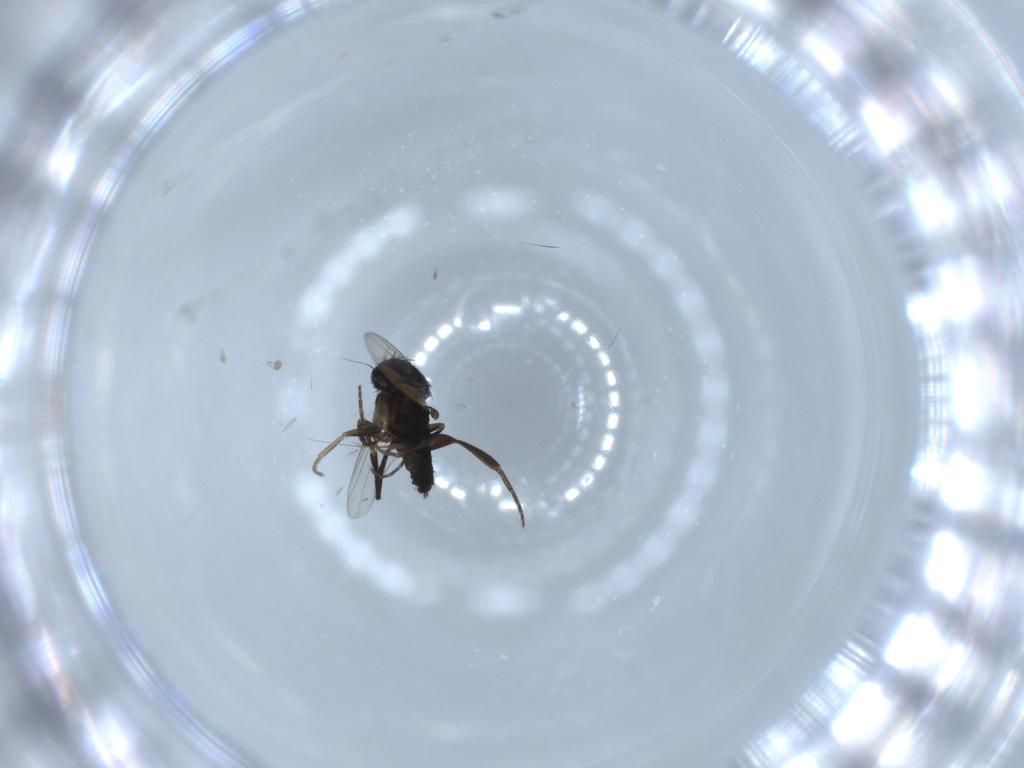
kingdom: Animalia
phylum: Arthropoda
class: Insecta
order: Diptera
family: Phoridae
